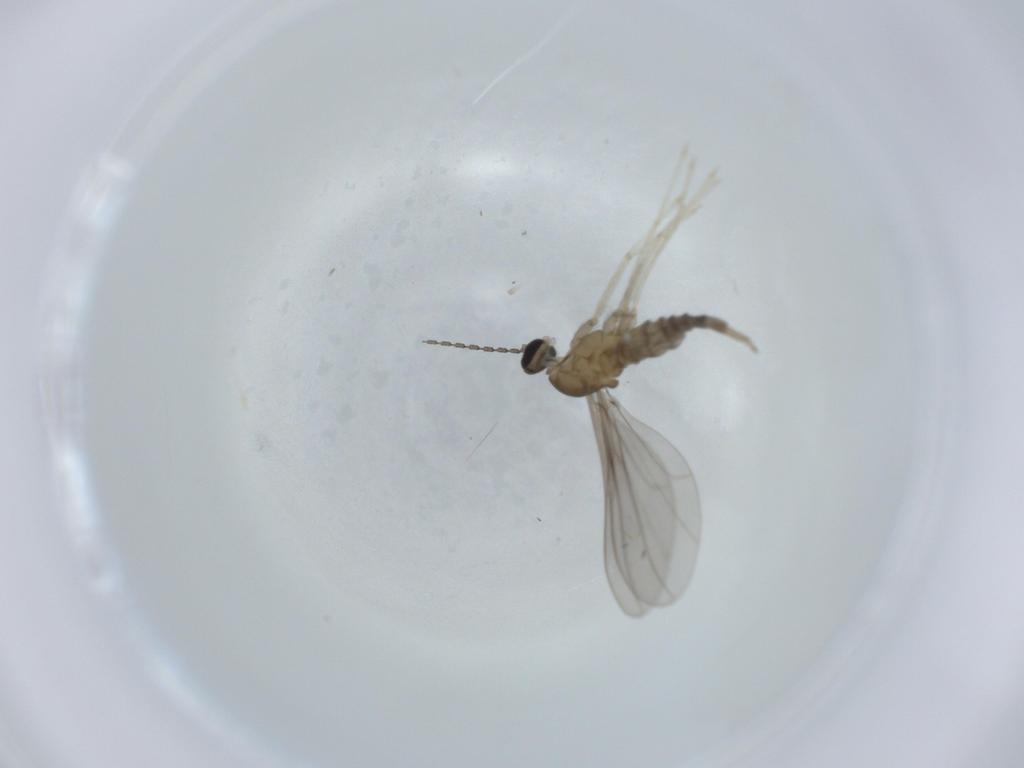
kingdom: Animalia
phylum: Arthropoda
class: Insecta
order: Diptera
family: Cecidomyiidae
